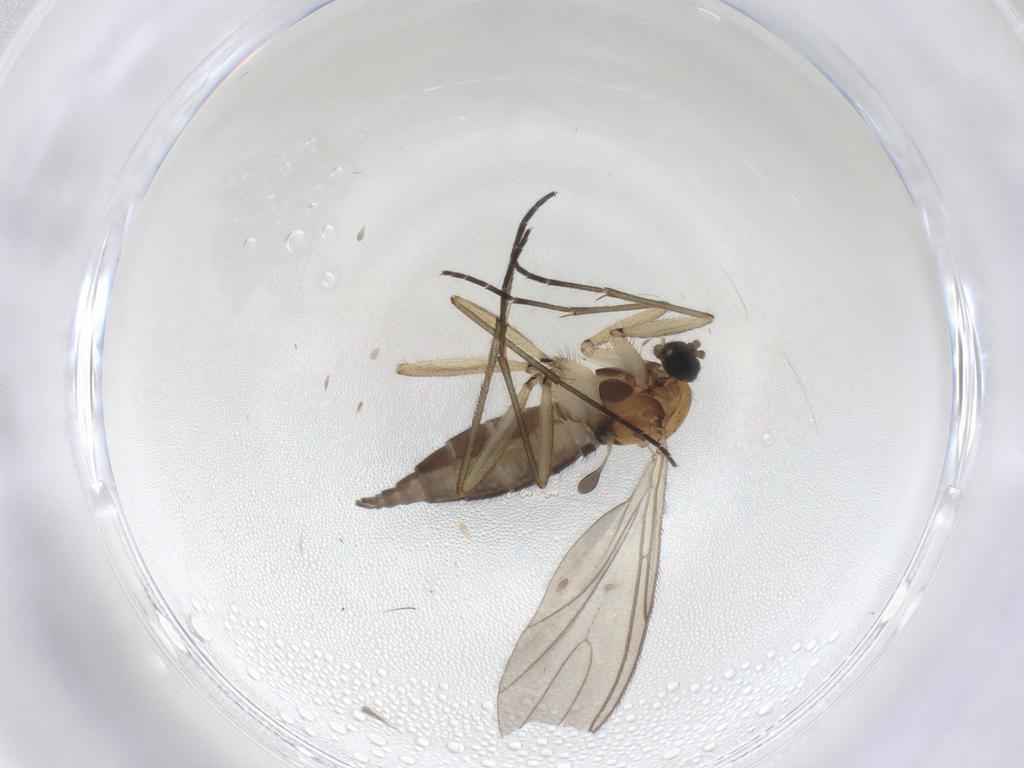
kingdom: Animalia
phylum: Arthropoda
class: Insecta
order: Diptera
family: Sciaridae
